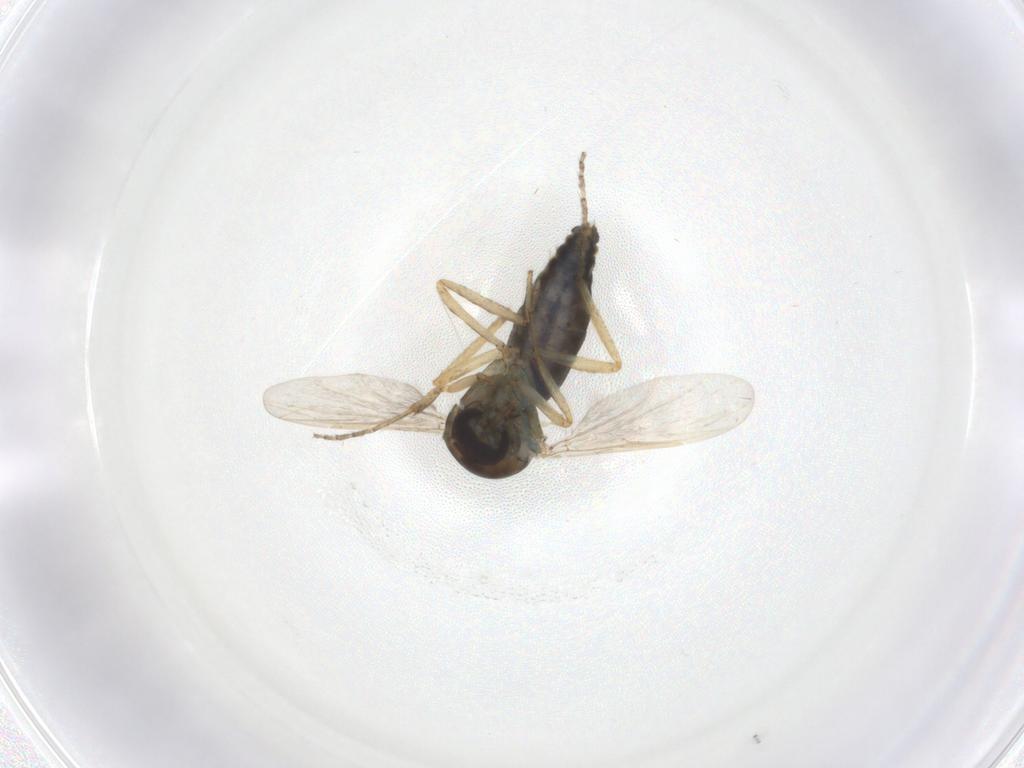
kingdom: Animalia
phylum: Arthropoda
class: Insecta
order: Diptera
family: Ceratopogonidae
